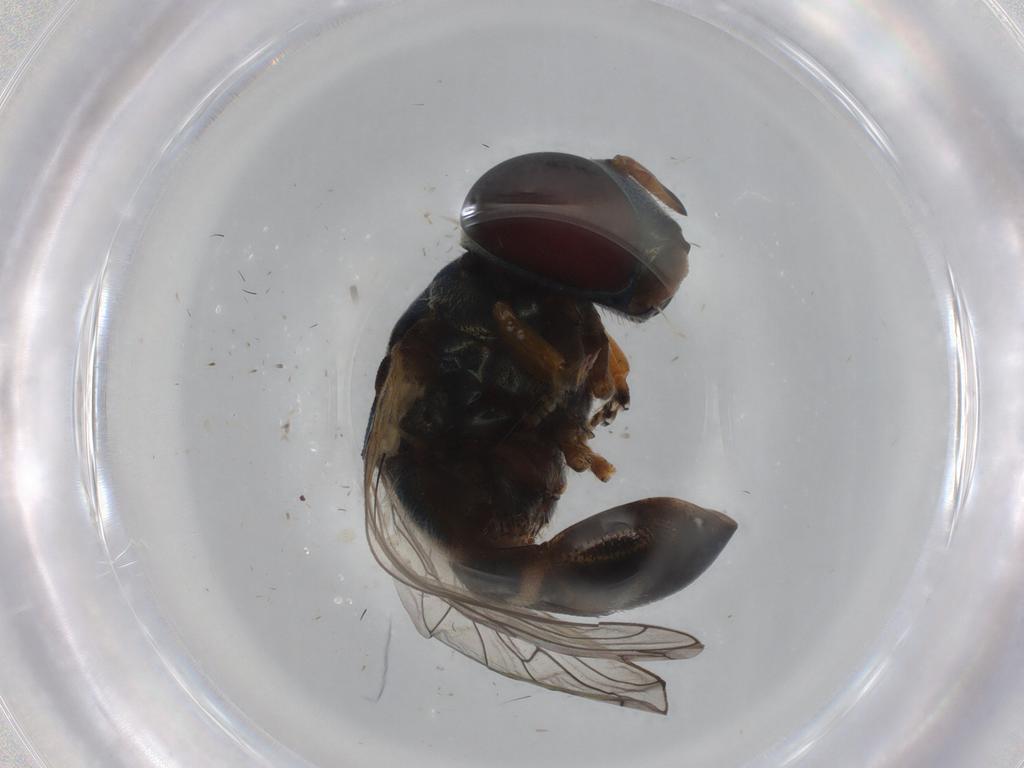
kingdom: Animalia
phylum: Arthropoda
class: Insecta
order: Diptera
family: Syrphidae
